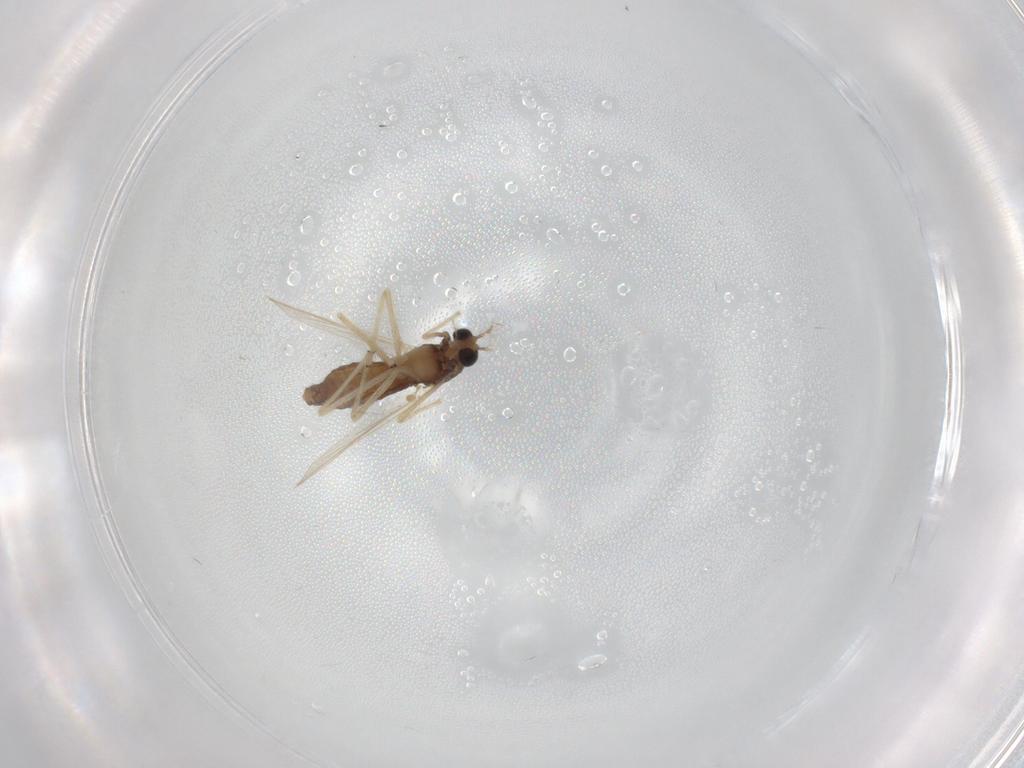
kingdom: Animalia
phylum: Arthropoda
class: Insecta
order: Diptera
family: Chironomidae
